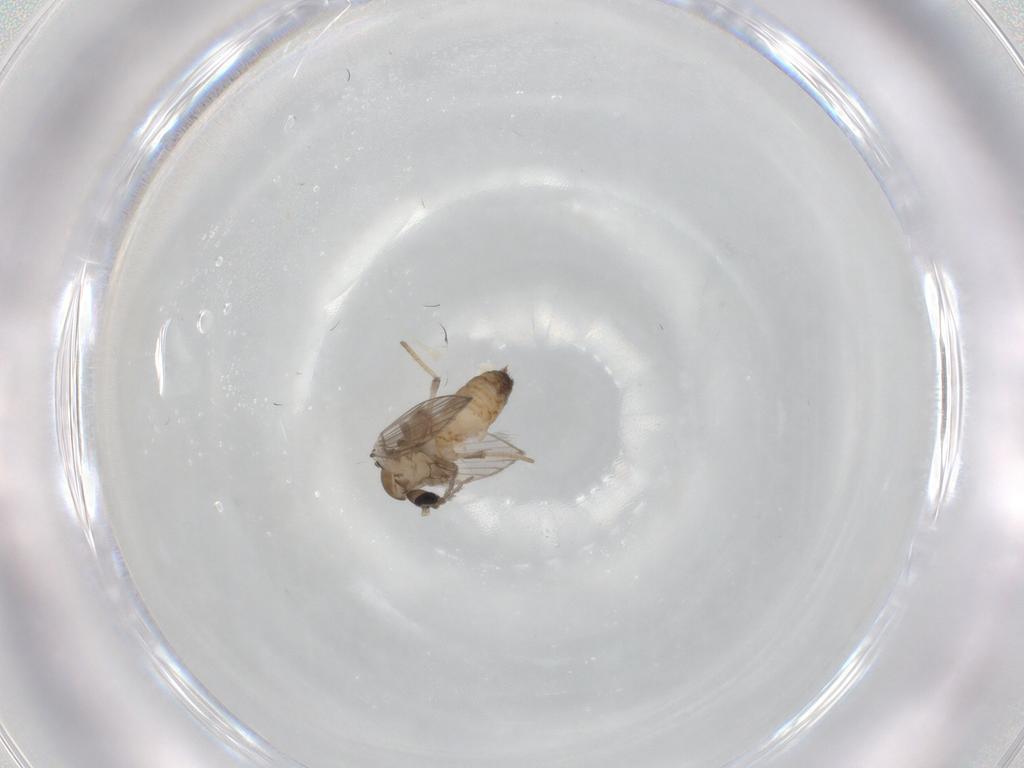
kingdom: Animalia
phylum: Arthropoda
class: Insecta
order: Diptera
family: Psychodidae
